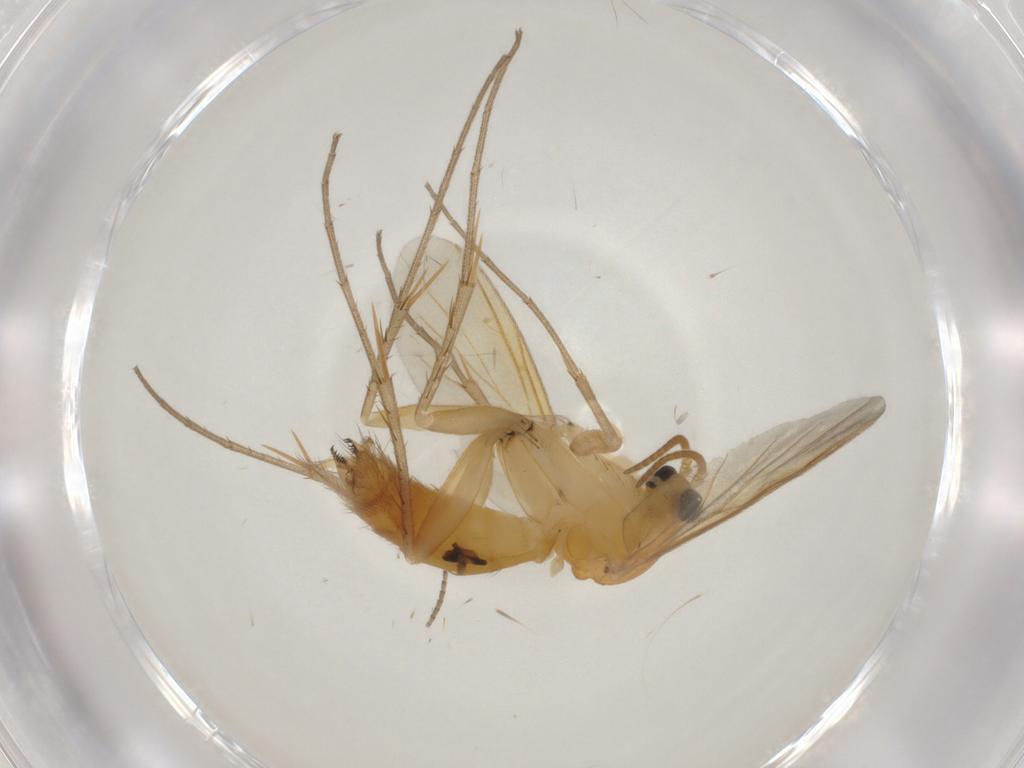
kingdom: Animalia
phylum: Arthropoda
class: Insecta
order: Diptera
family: Mycetophilidae
